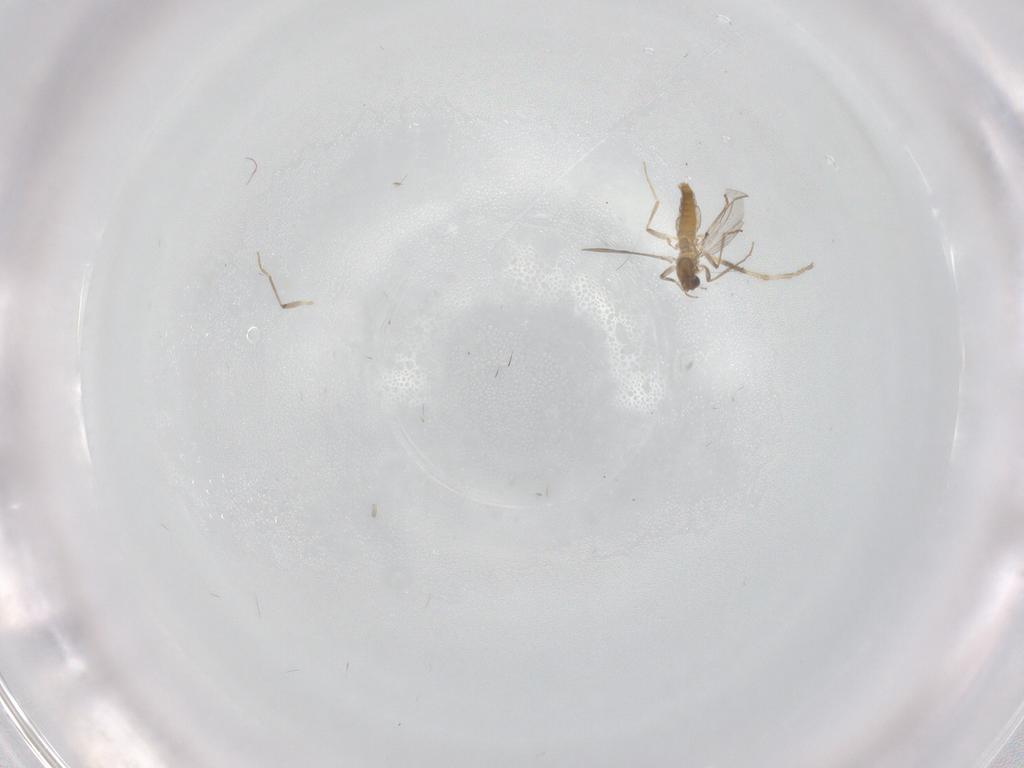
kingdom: Animalia
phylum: Arthropoda
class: Insecta
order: Diptera
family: Chironomidae
